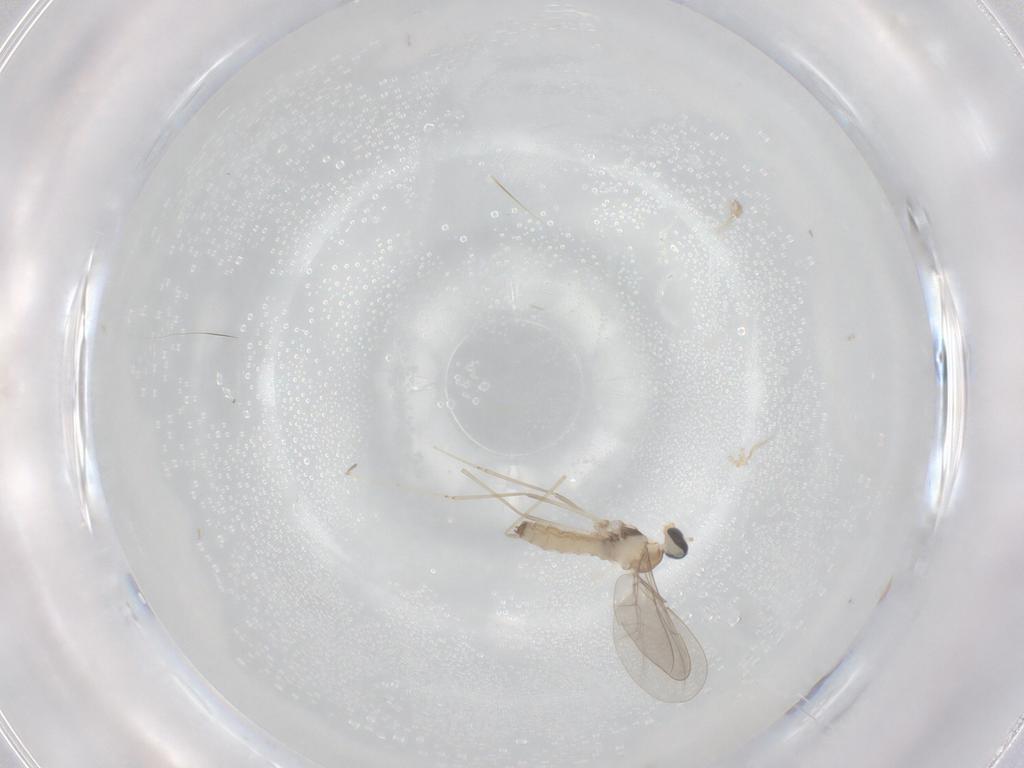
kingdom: Animalia
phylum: Arthropoda
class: Insecta
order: Diptera
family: Cecidomyiidae
